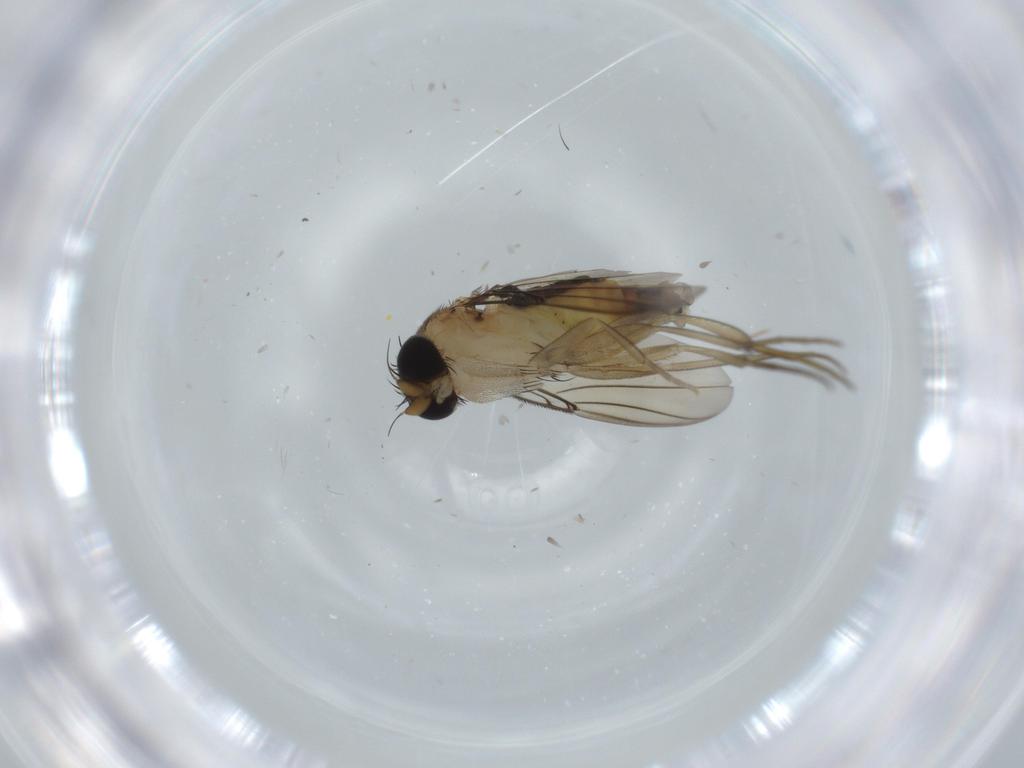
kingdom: Animalia
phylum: Arthropoda
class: Insecta
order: Diptera
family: Phoridae
